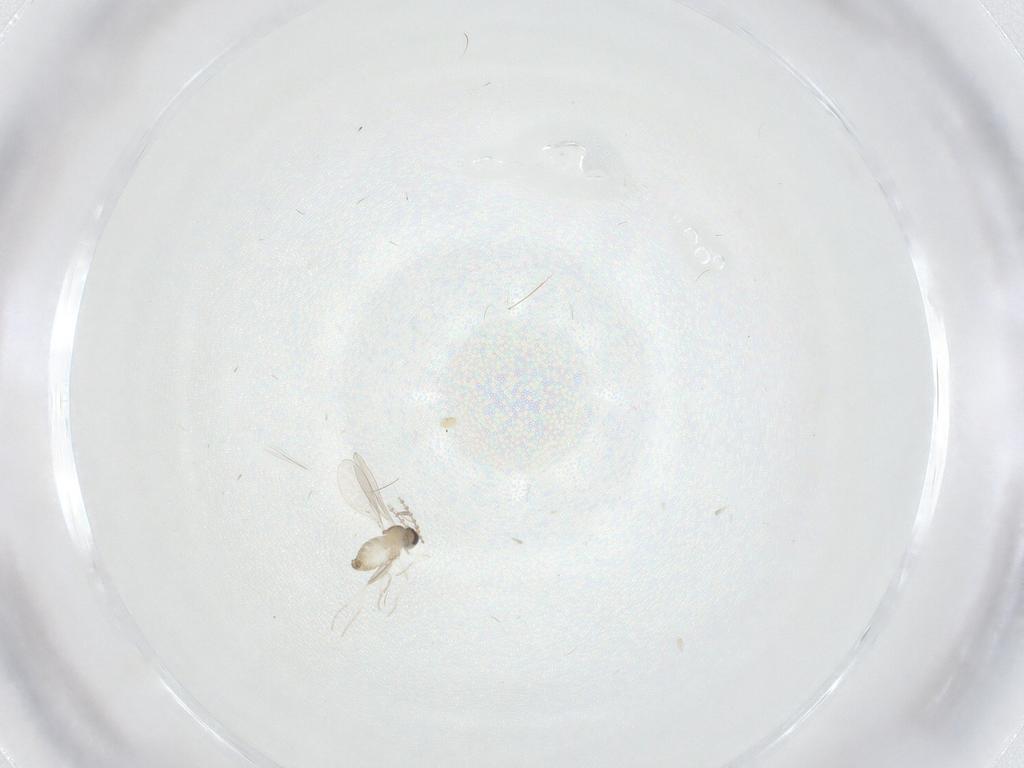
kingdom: Animalia
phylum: Arthropoda
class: Insecta
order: Diptera
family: Cecidomyiidae
